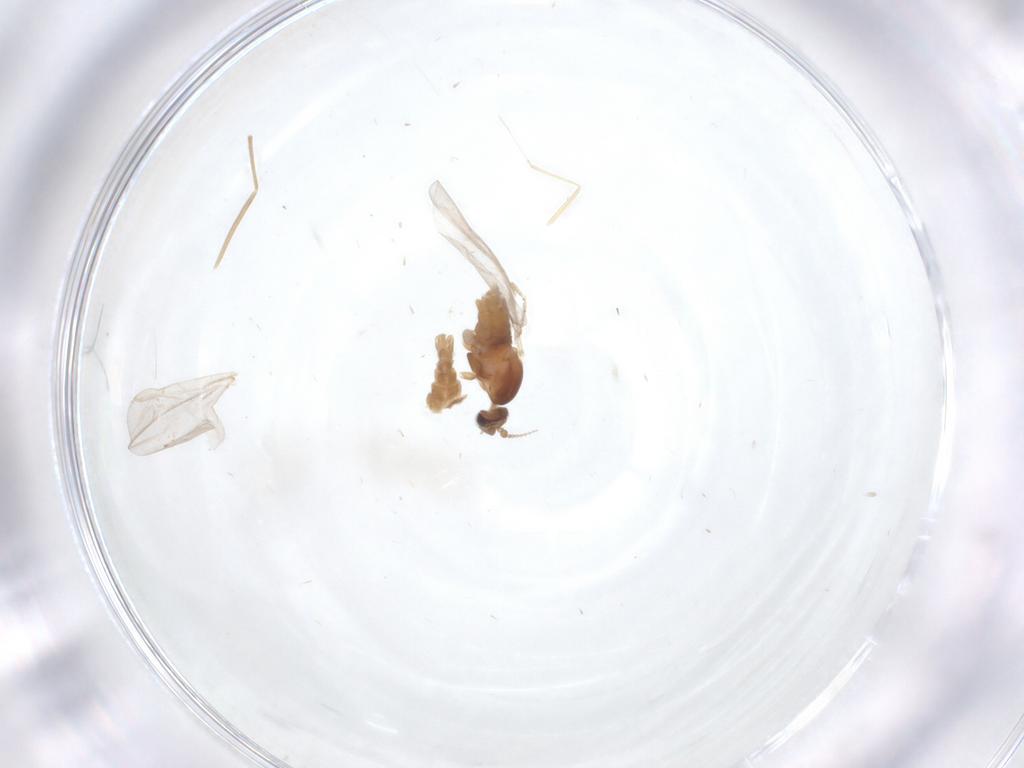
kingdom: Animalia
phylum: Arthropoda
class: Insecta
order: Diptera
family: Cecidomyiidae
